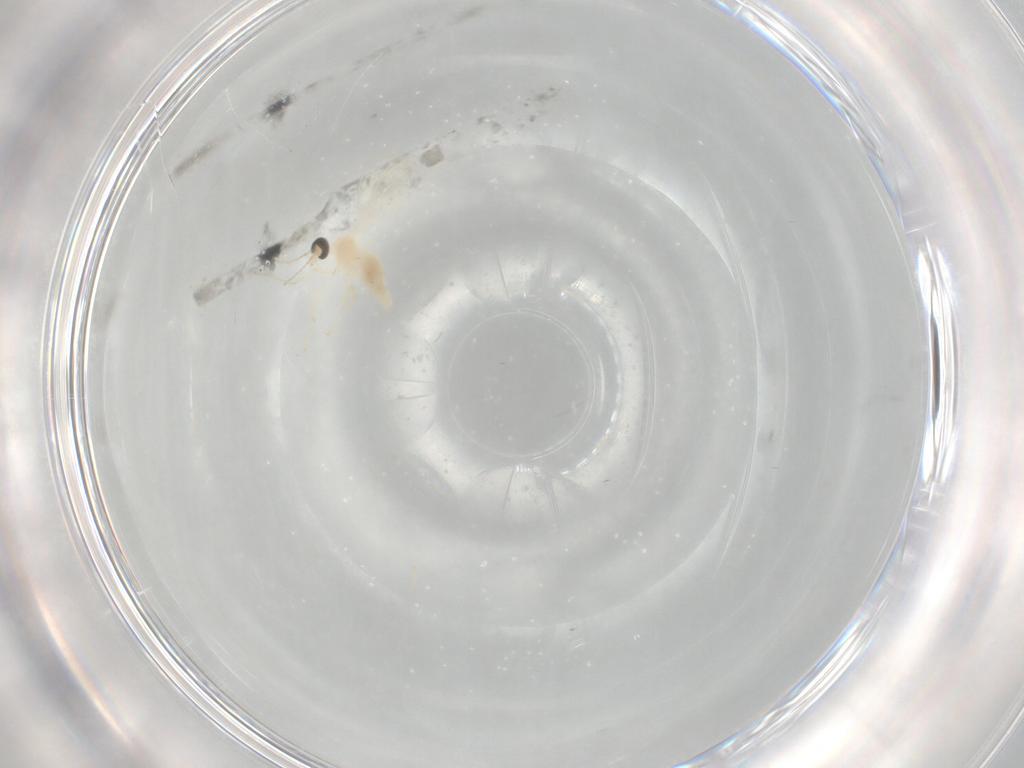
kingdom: Animalia
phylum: Arthropoda
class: Insecta
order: Diptera
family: Cecidomyiidae
